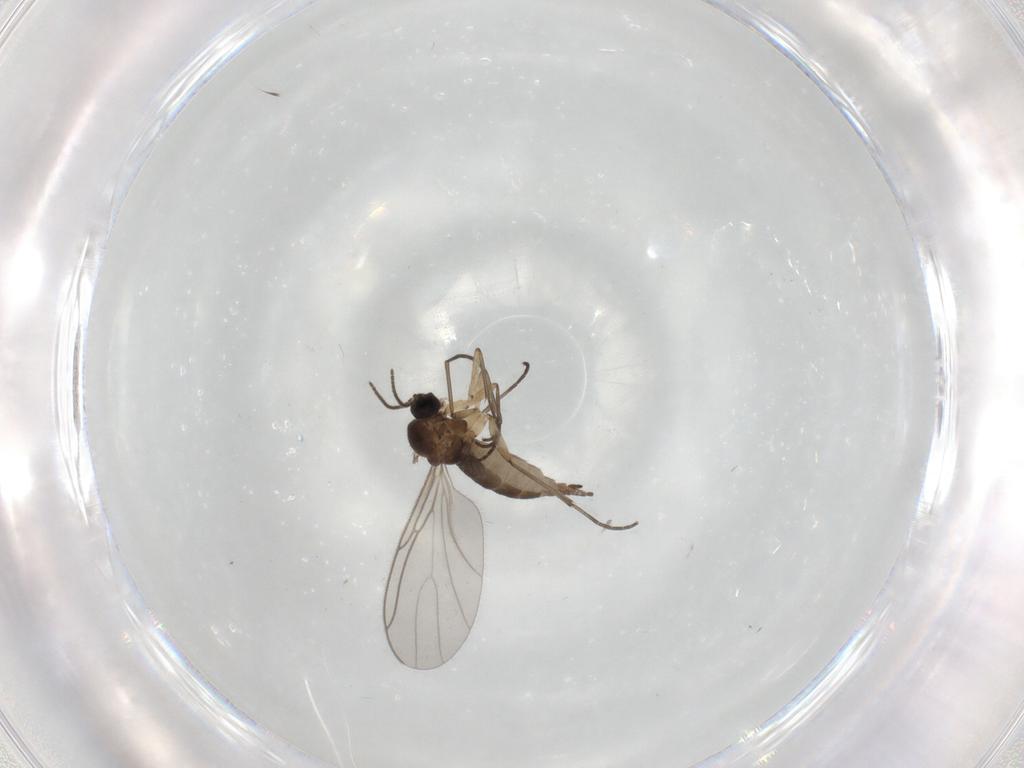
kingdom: Animalia
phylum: Arthropoda
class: Insecta
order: Diptera
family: Sciaridae
